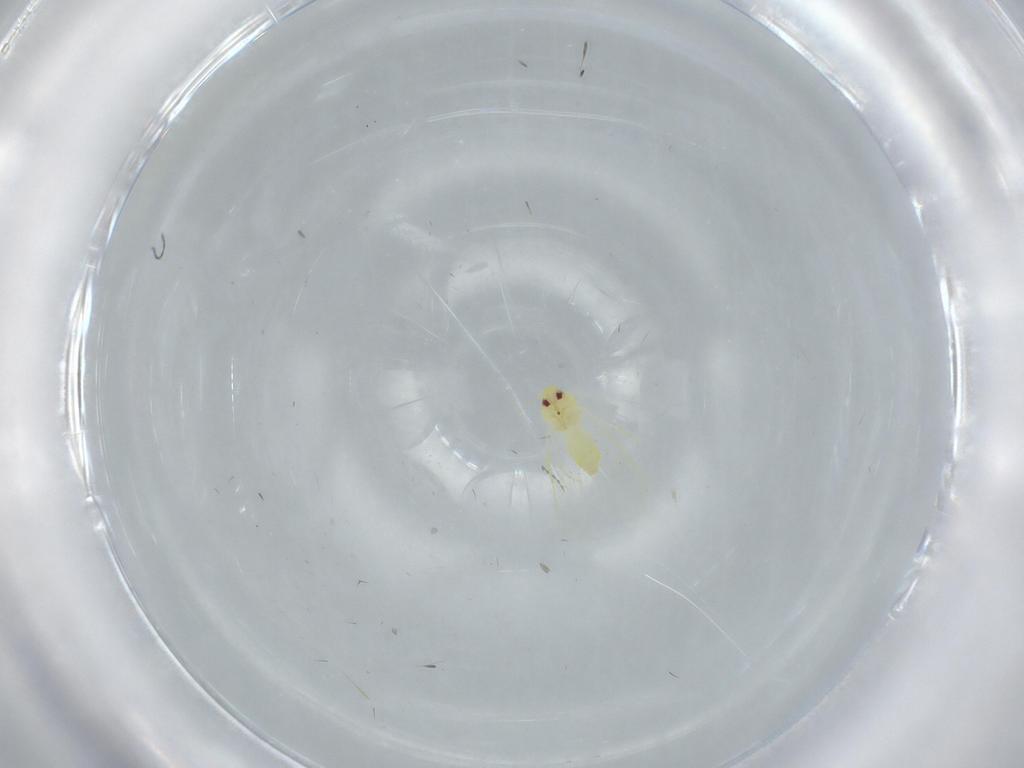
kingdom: Animalia
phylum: Arthropoda
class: Insecta
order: Hemiptera
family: Aleyrodidae
